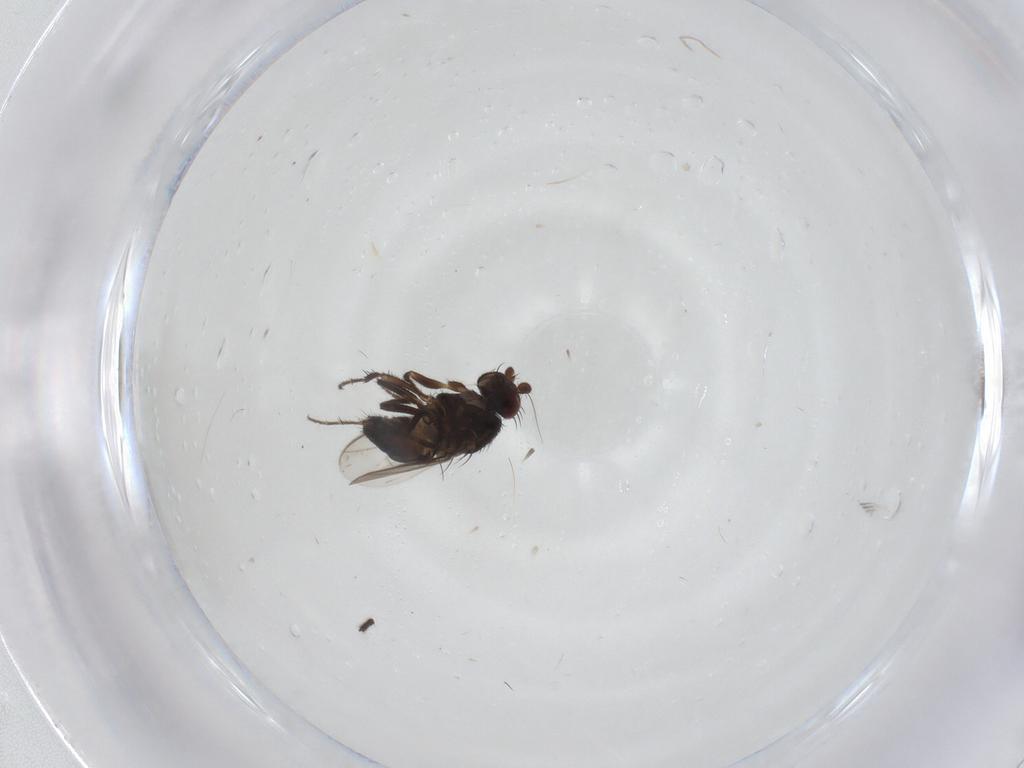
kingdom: Animalia
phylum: Arthropoda
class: Insecta
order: Diptera
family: Sphaeroceridae
